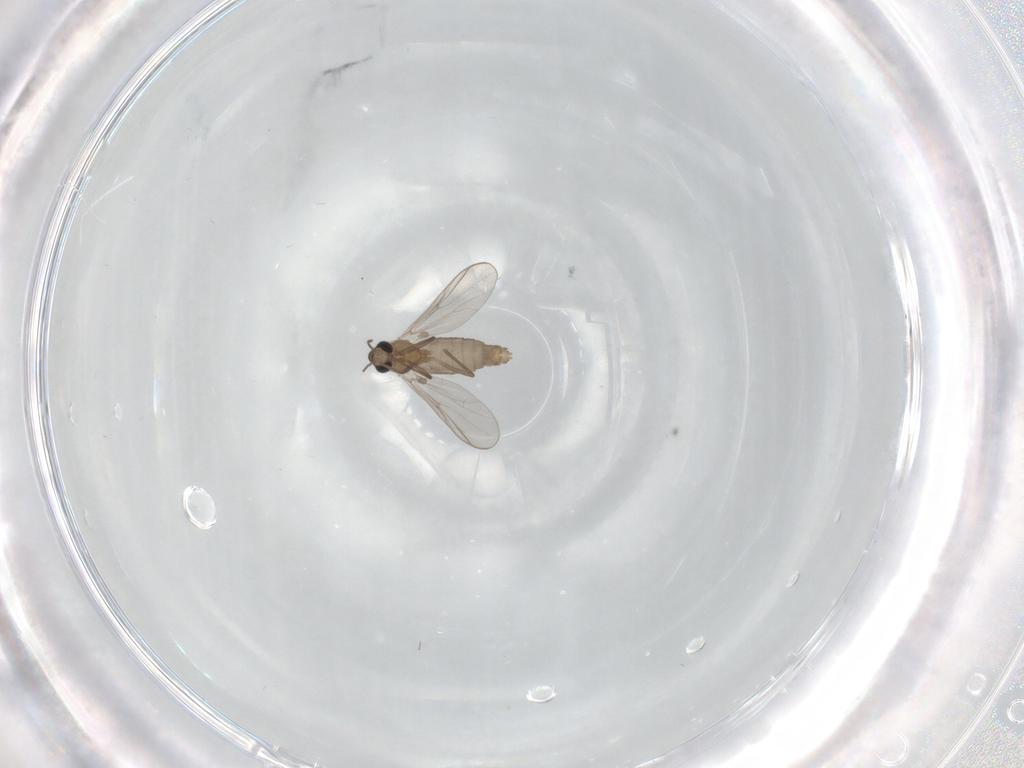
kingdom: Animalia
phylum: Arthropoda
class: Insecta
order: Diptera
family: Chironomidae
